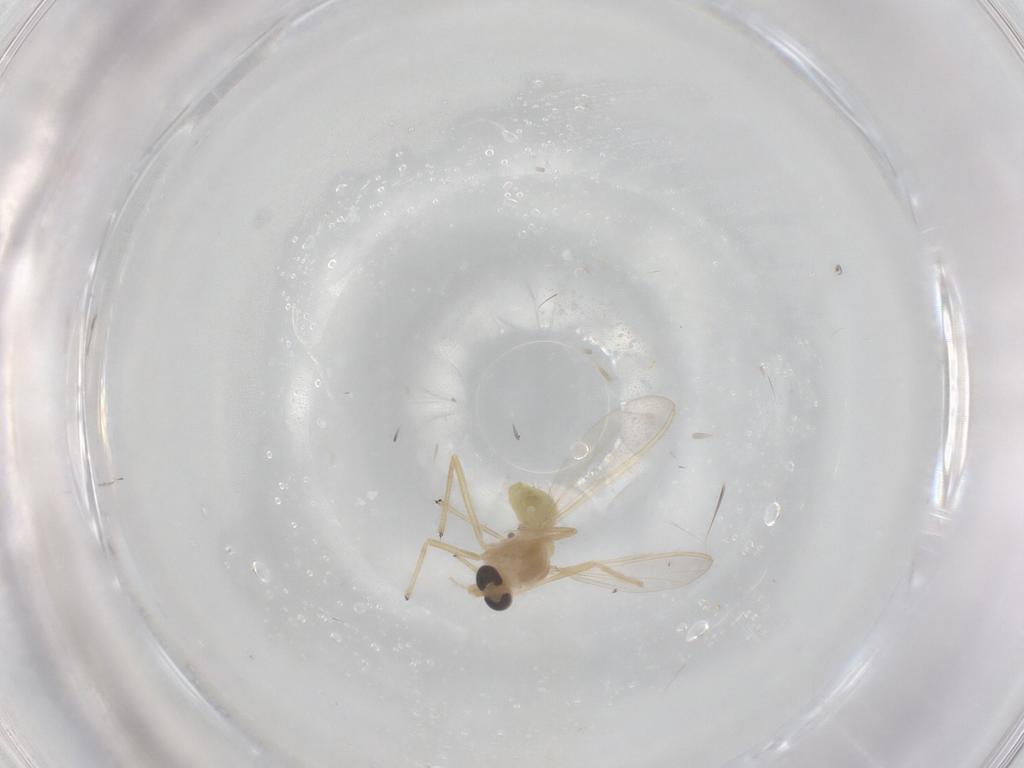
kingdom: Animalia
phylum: Arthropoda
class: Insecta
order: Diptera
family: Chironomidae
